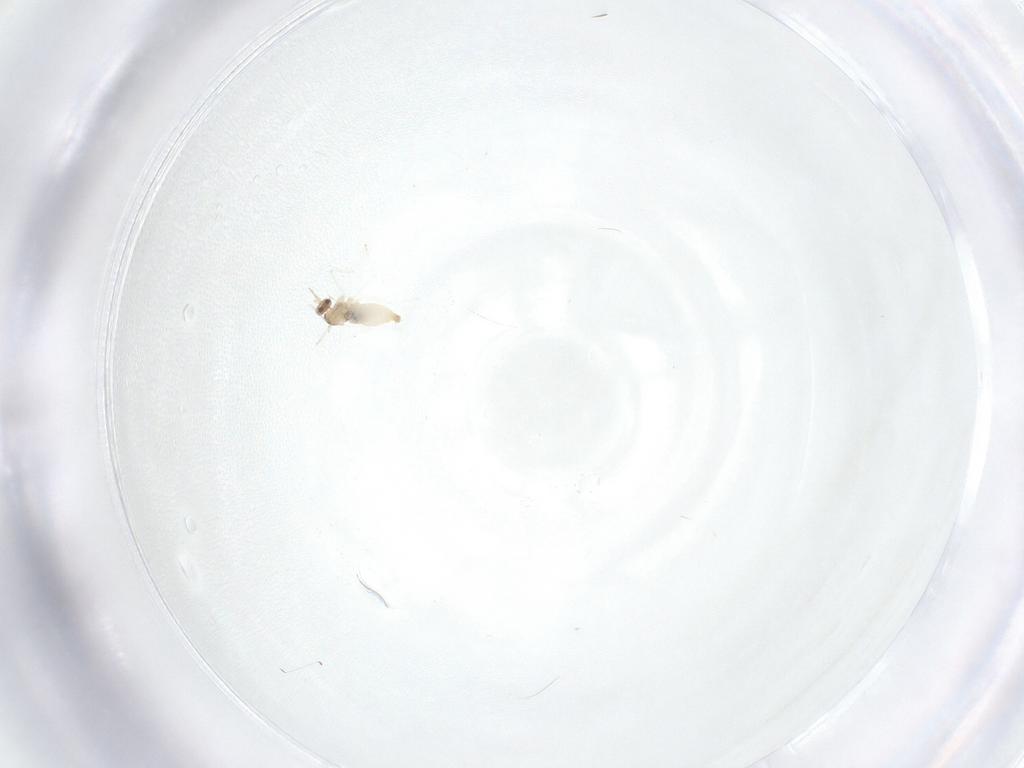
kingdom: Animalia
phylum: Arthropoda
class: Insecta
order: Diptera
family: Cecidomyiidae
